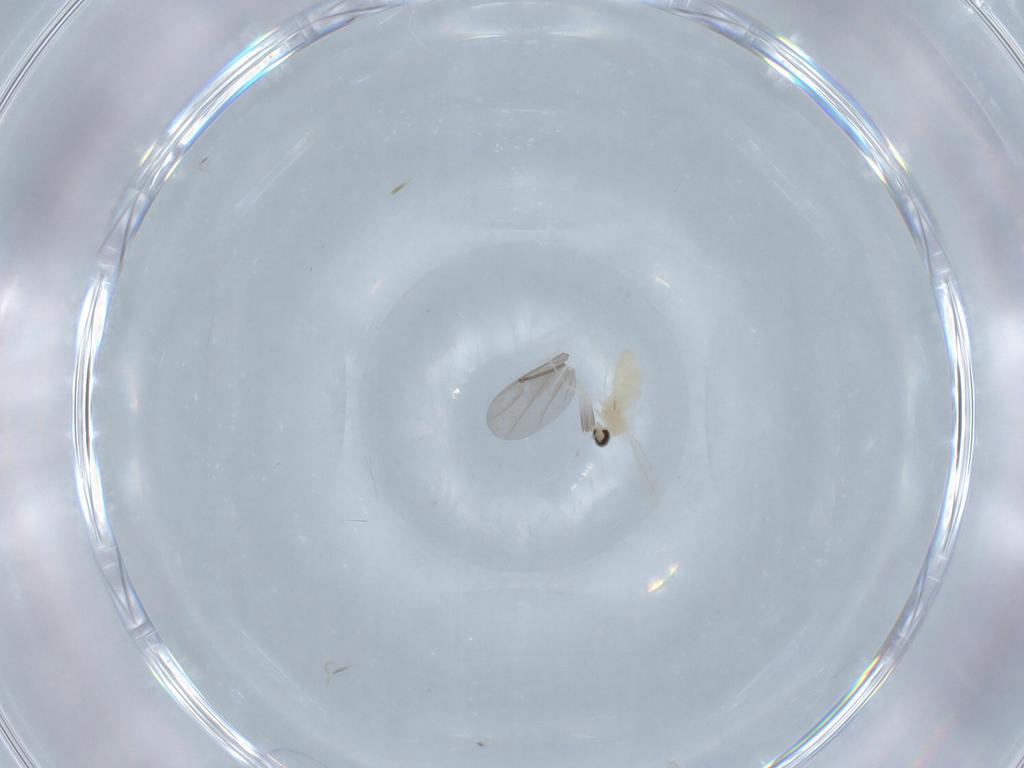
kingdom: Animalia
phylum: Arthropoda
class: Insecta
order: Diptera
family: Cecidomyiidae
